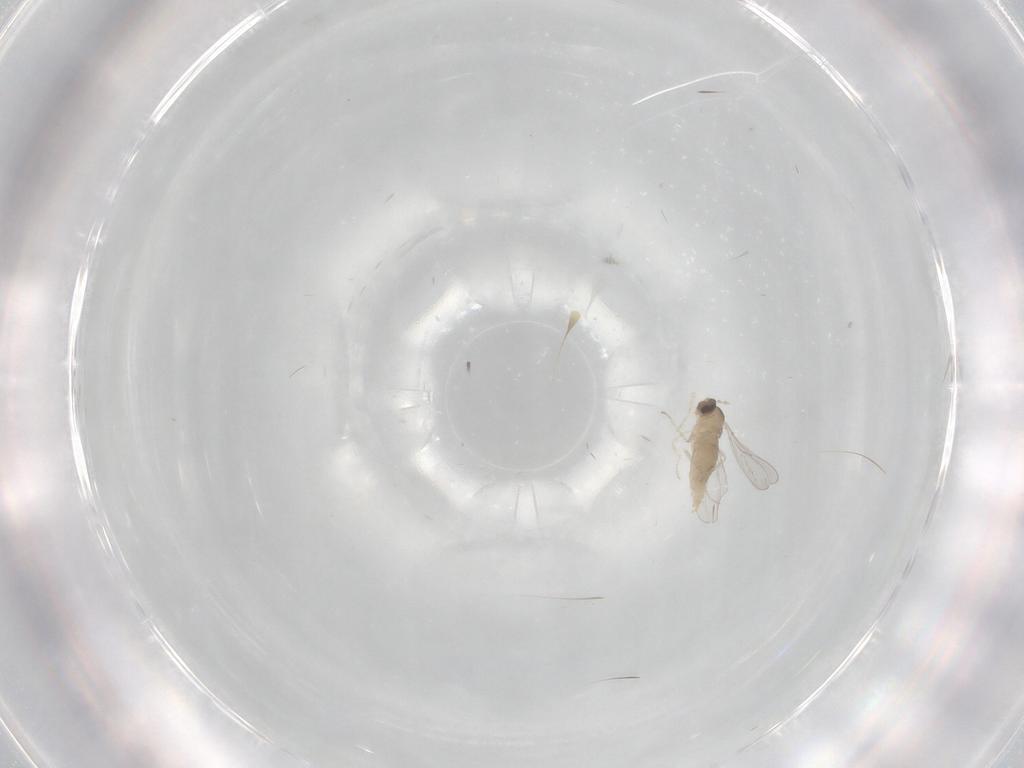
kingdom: Animalia
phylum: Arthropoda
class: Insecta
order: Diptera
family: Cecidomyiidae
